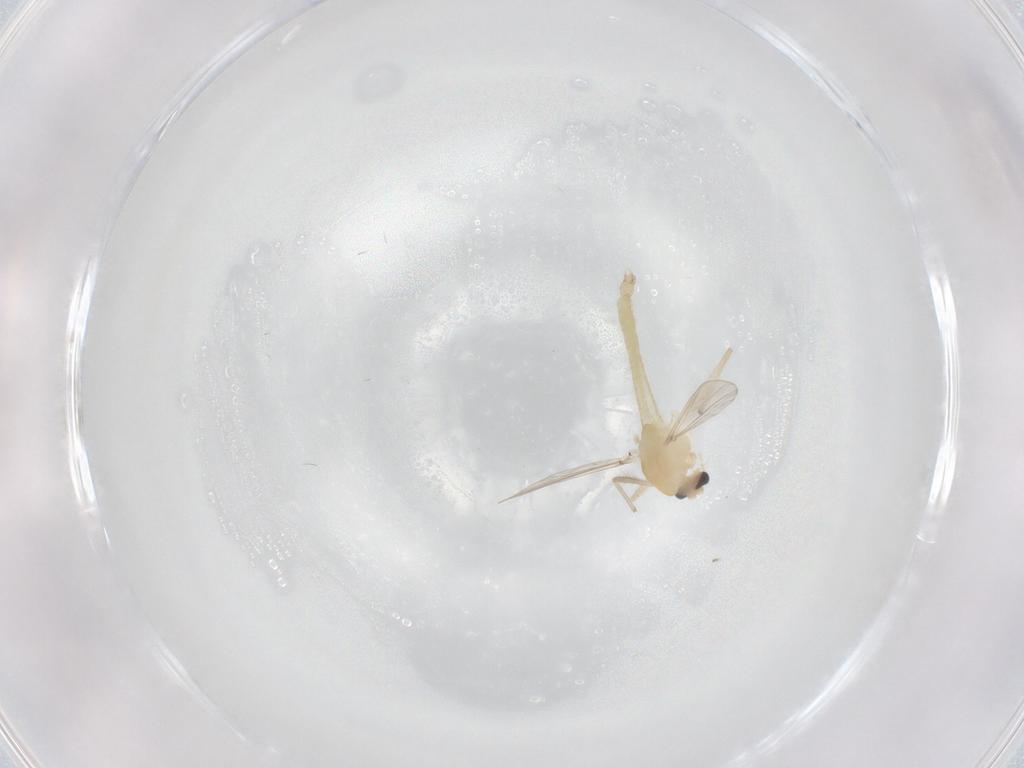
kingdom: Animalia
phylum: Arthropoda
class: Insecta
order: Diptera
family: Chironomidae
